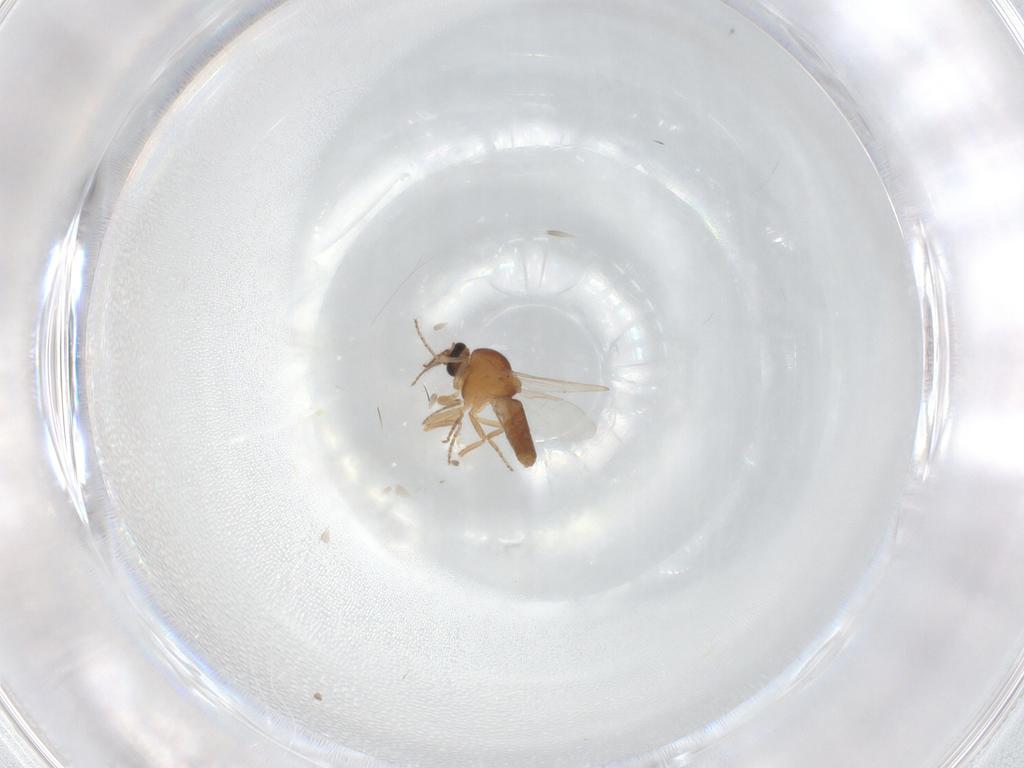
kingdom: Animalia
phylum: Arthropoda
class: Insecta
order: Diptera
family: Ceratopogonidae
